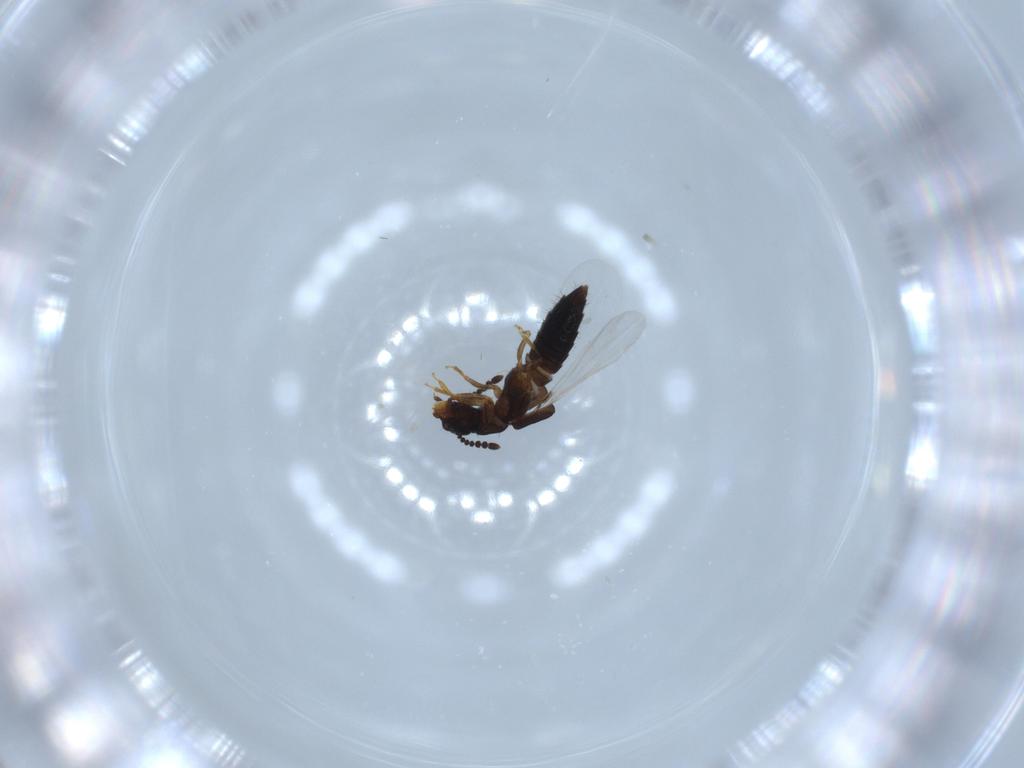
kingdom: Animalia
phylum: Arthropoda
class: Insecta
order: Coleoptera
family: Staphylinidae
